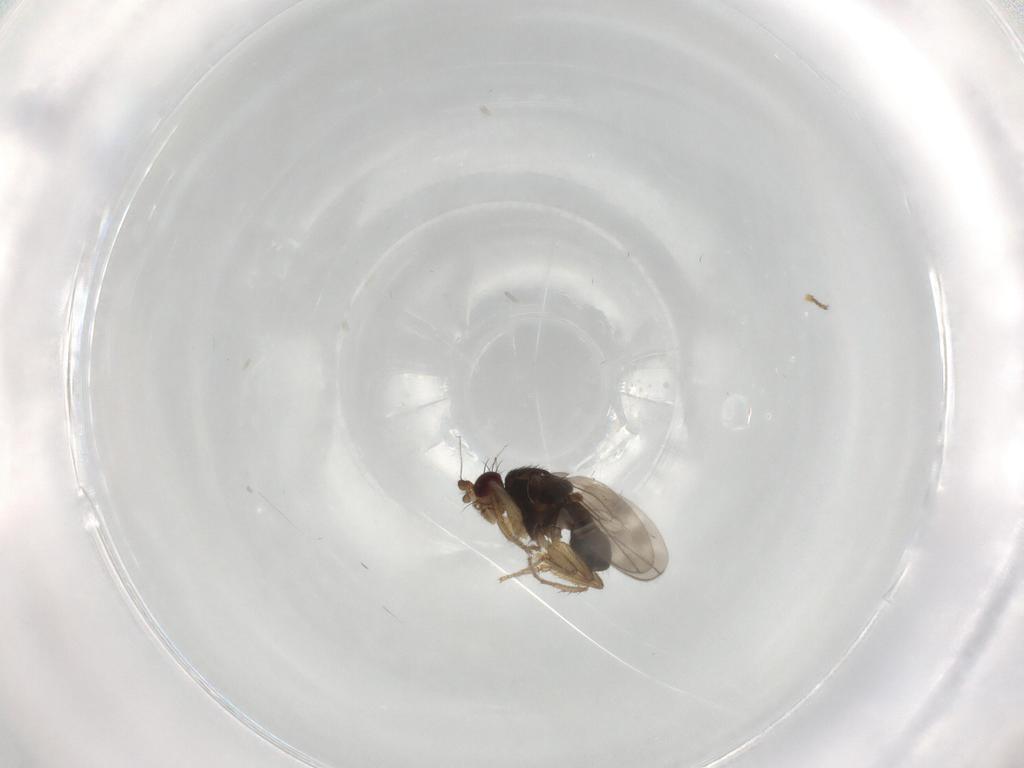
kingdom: Animalia
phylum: Arthropoda
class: Insecta
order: Diptera
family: Sphaeroceridae
